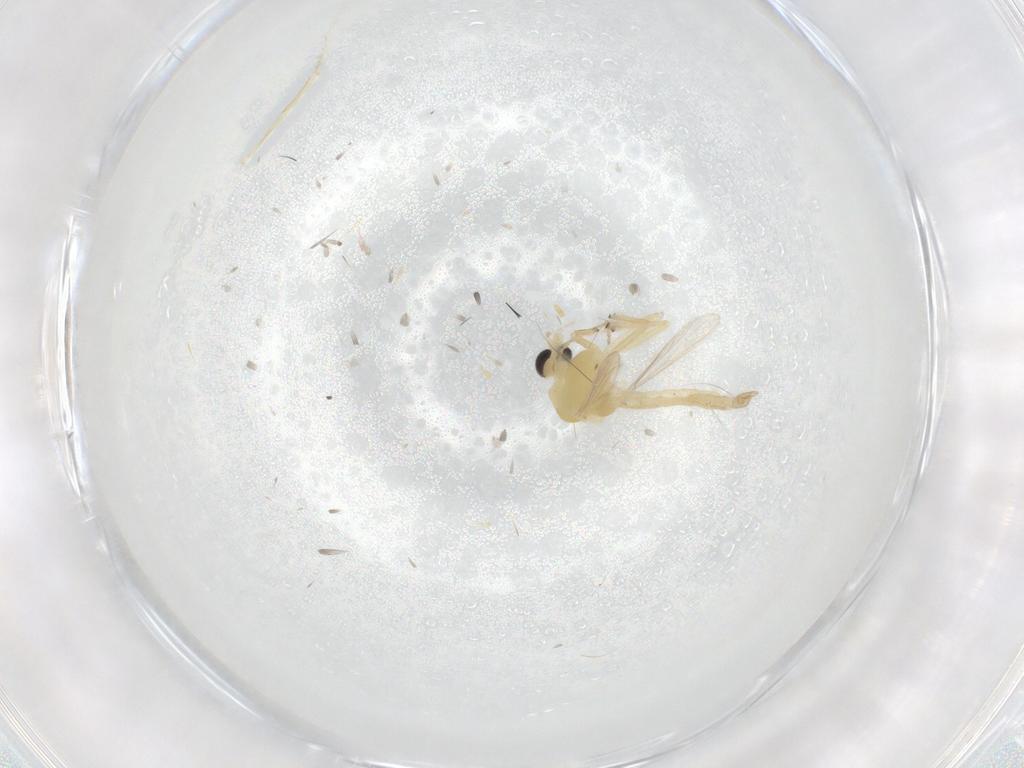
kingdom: Animalia
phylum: Arthropoda
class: Insecta
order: Diptera
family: Chironomidae
